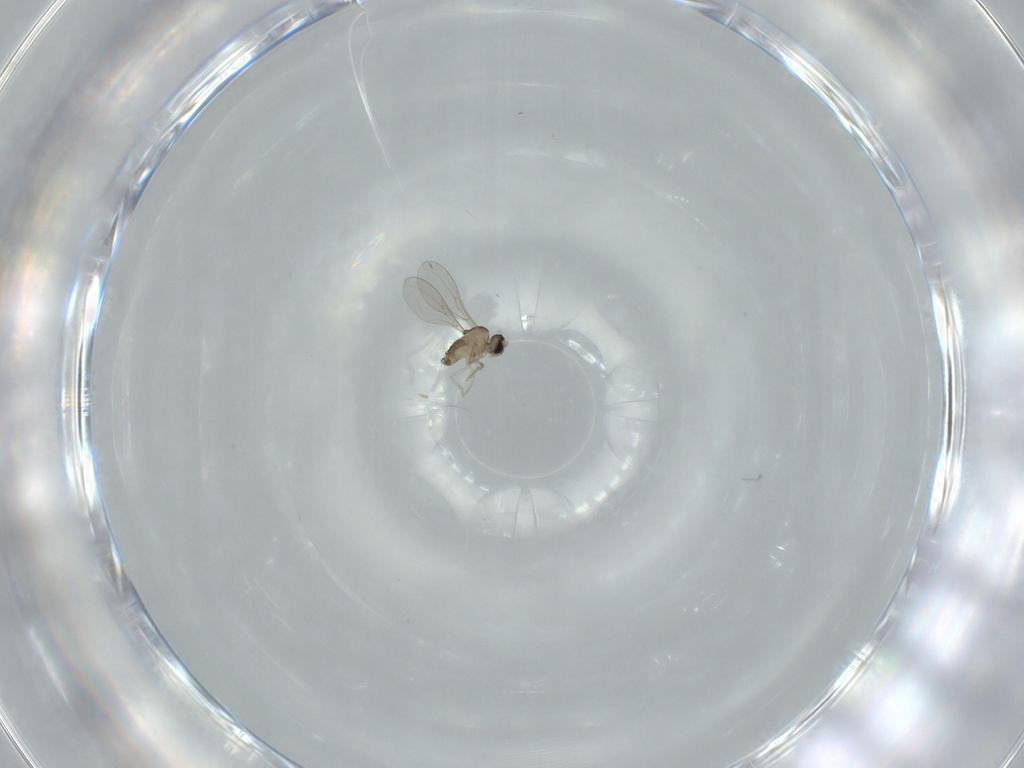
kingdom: Animalia
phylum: Arthropoda
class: Insecta
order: Diptera
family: Cecidomyiidae
